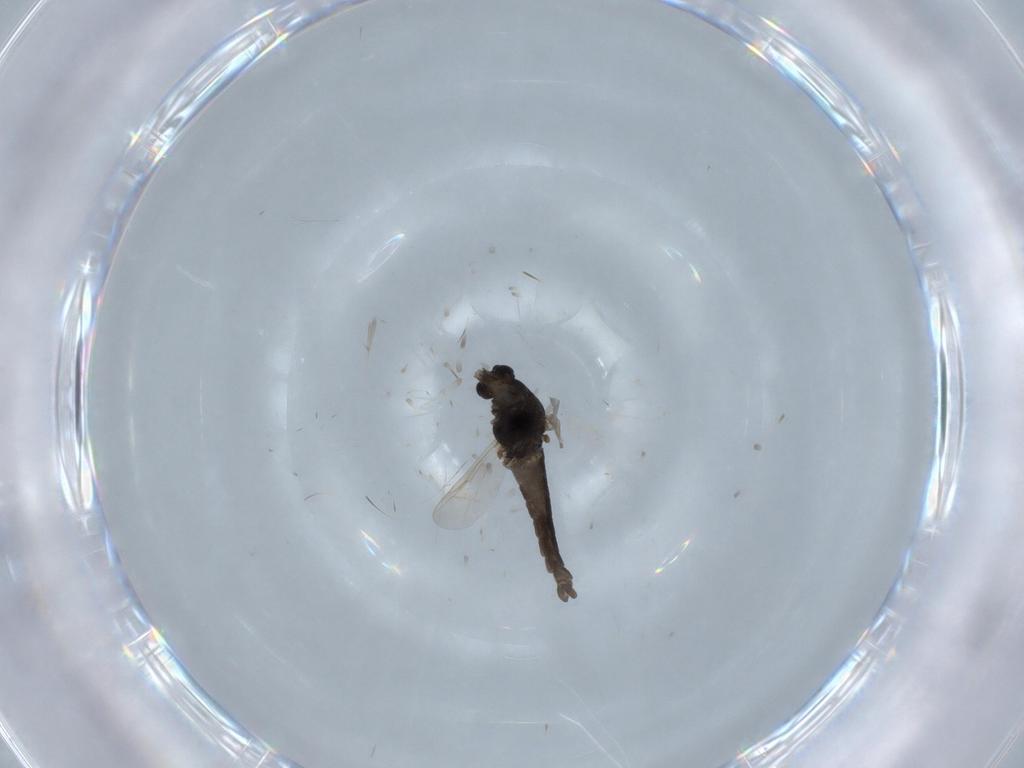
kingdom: Animalia
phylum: Arthropoda
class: Insecta
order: Diptera
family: Chironomidae
